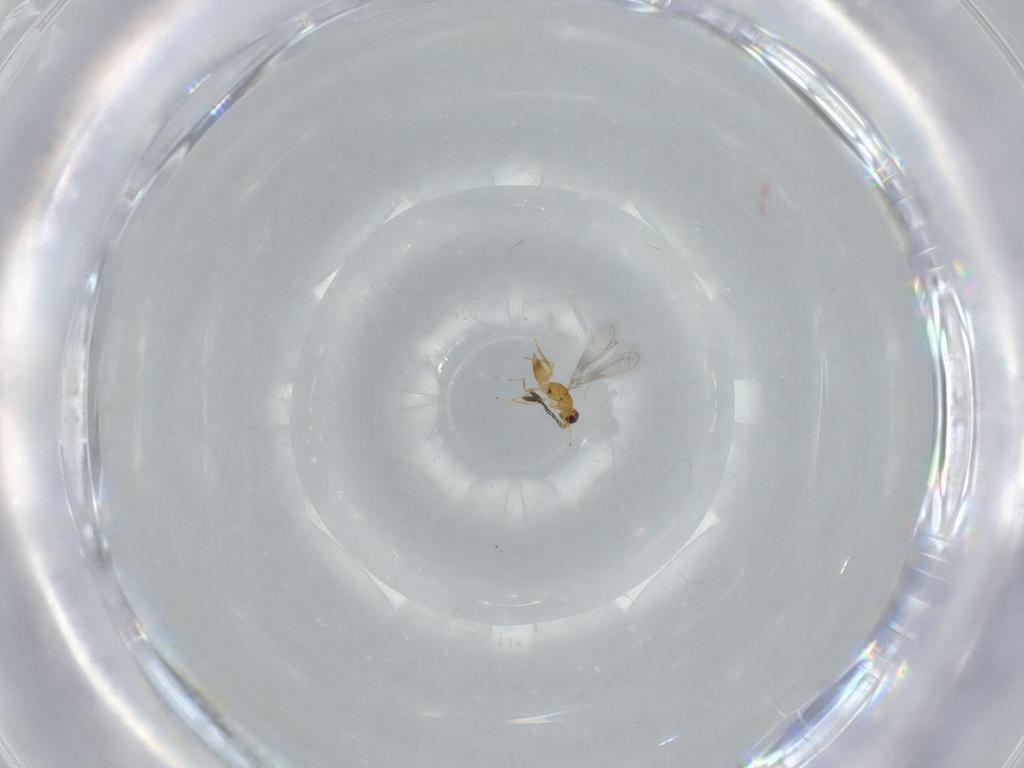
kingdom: Animalia
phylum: Arthropoda
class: Insecta
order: Hymenoptera
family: Mymaridae
